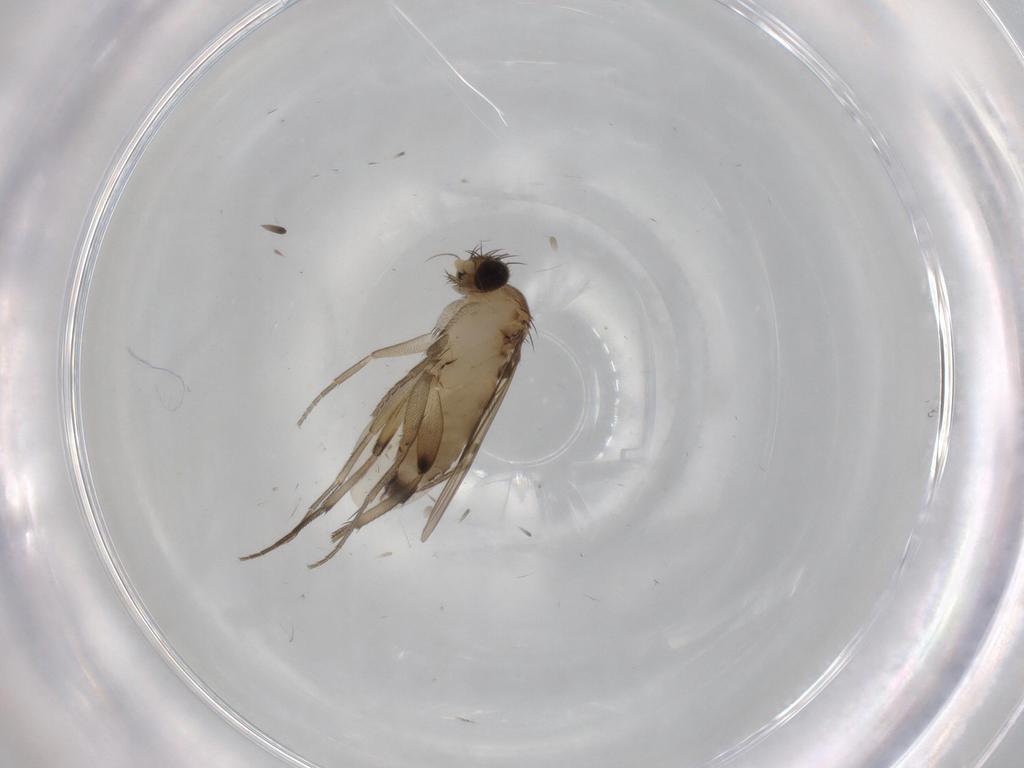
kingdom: Animalia
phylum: Arthropoda
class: Insecta
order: Diptera
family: Phoridae
